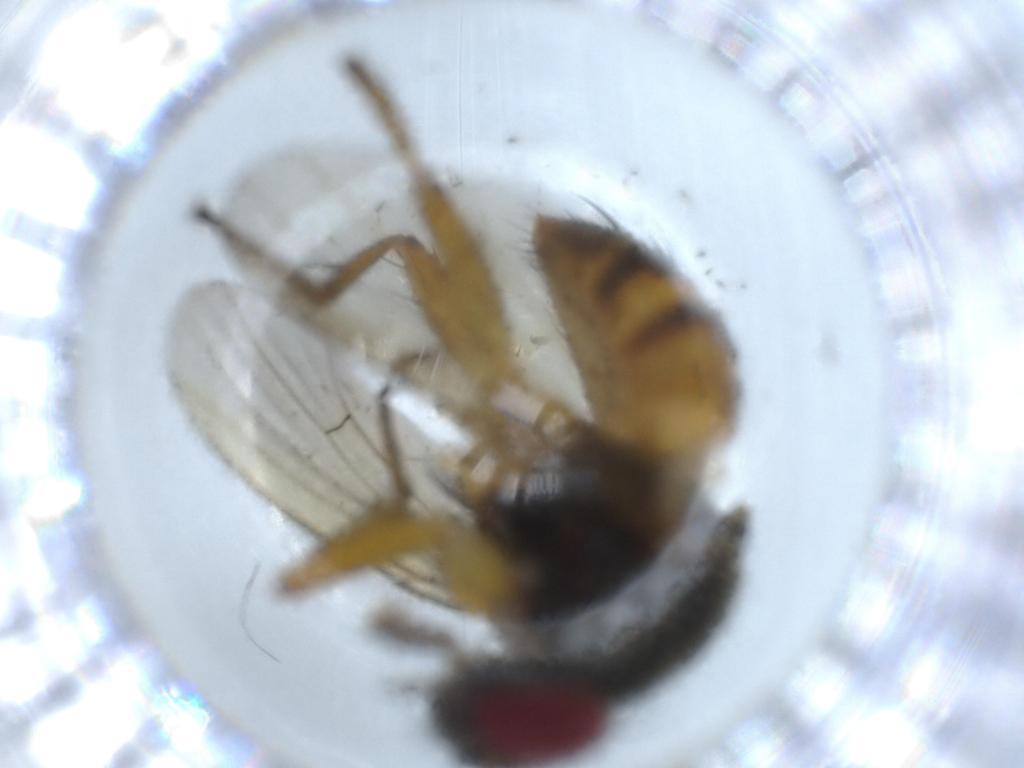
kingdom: Animalia
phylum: Arthropoda
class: Insecta
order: Diptera
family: Muscidae
